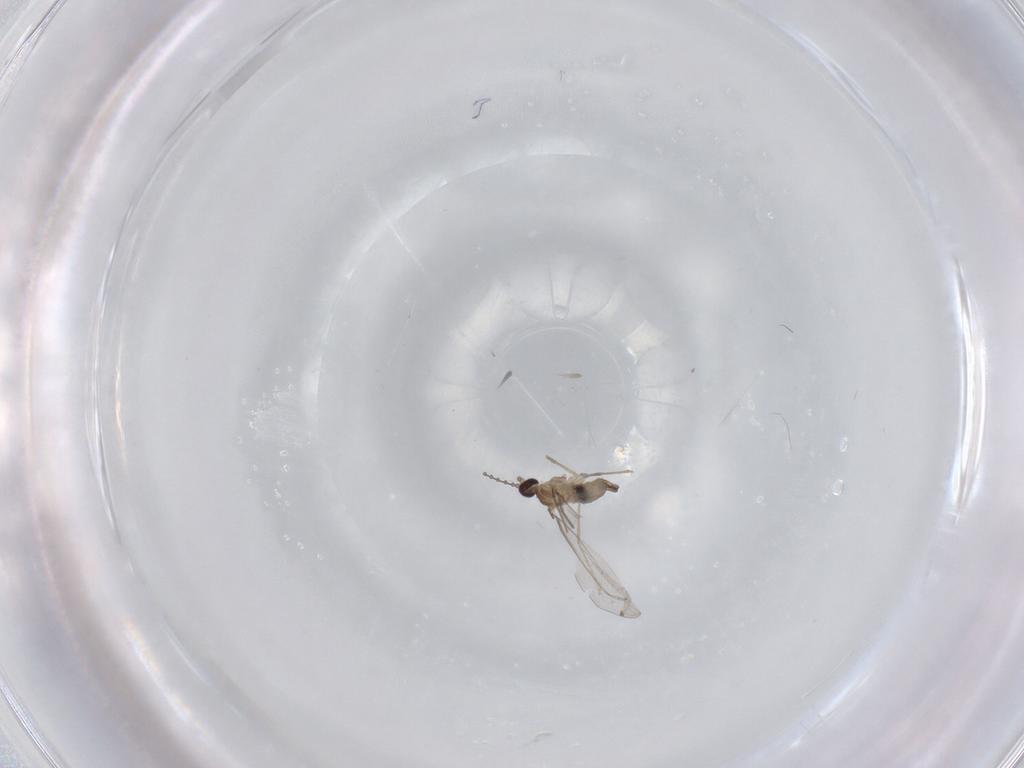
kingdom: Animalia
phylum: Arthropoda
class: Insecta
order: Diptera
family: Cecidomyiidae
